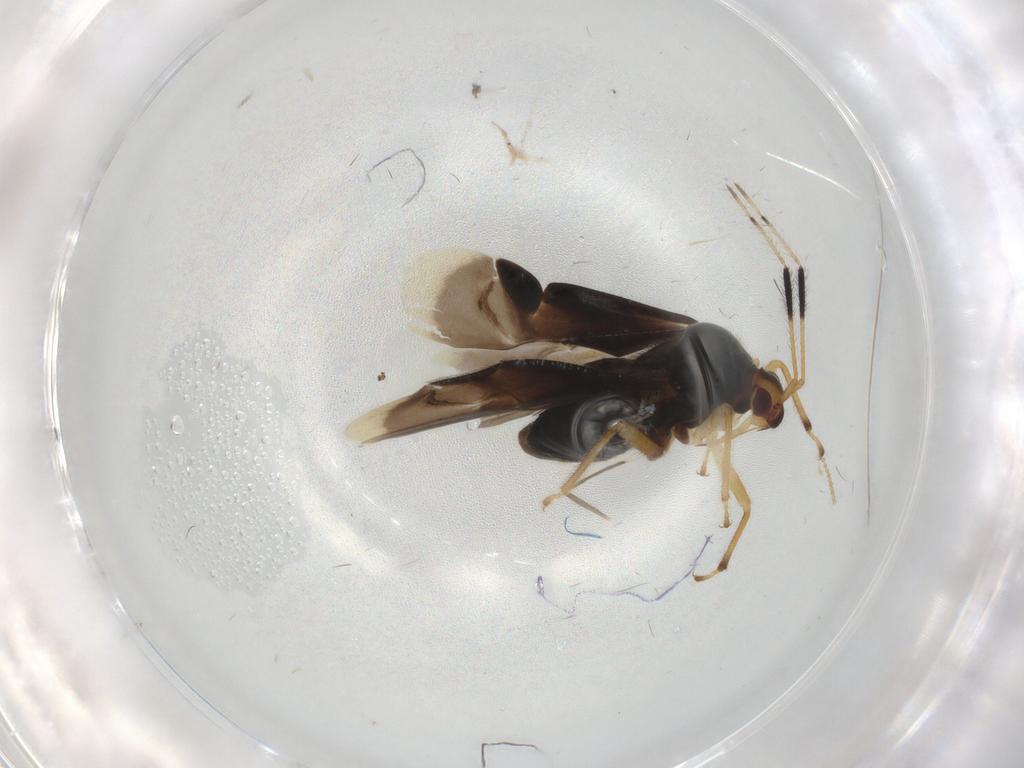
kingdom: Animalia
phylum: Arthropoda
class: Insecta
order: Hemiptera
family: Miridae
